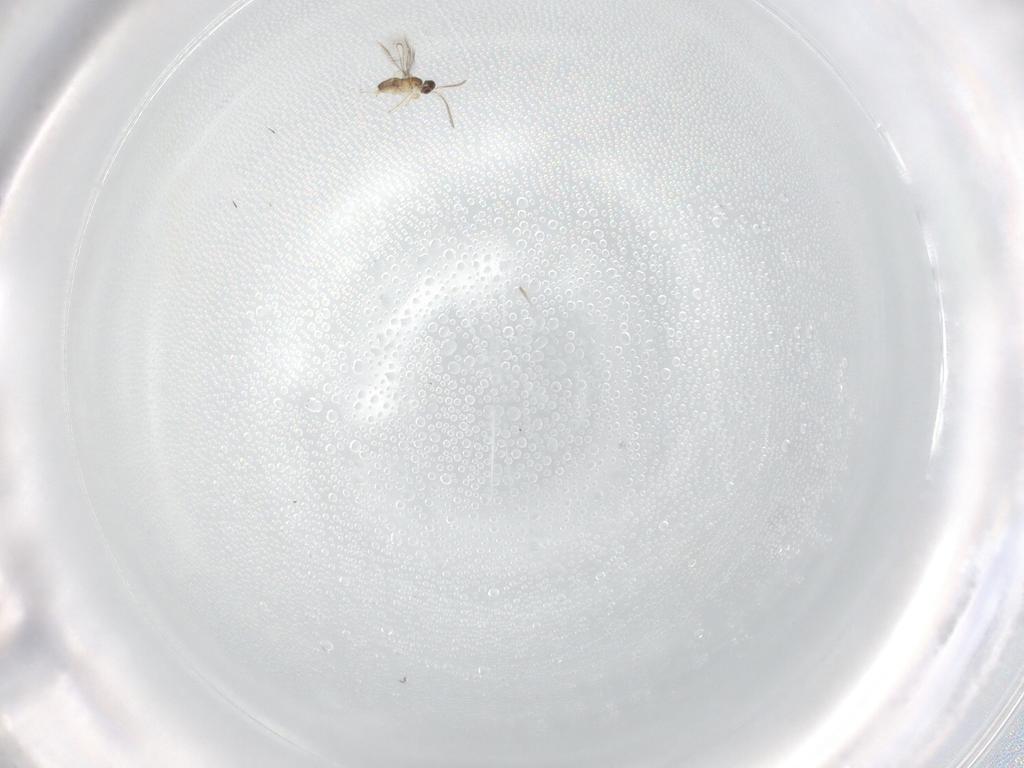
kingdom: Animalia
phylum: Arthropoda
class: Insecta
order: Hymenoptera
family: Mymaridae
